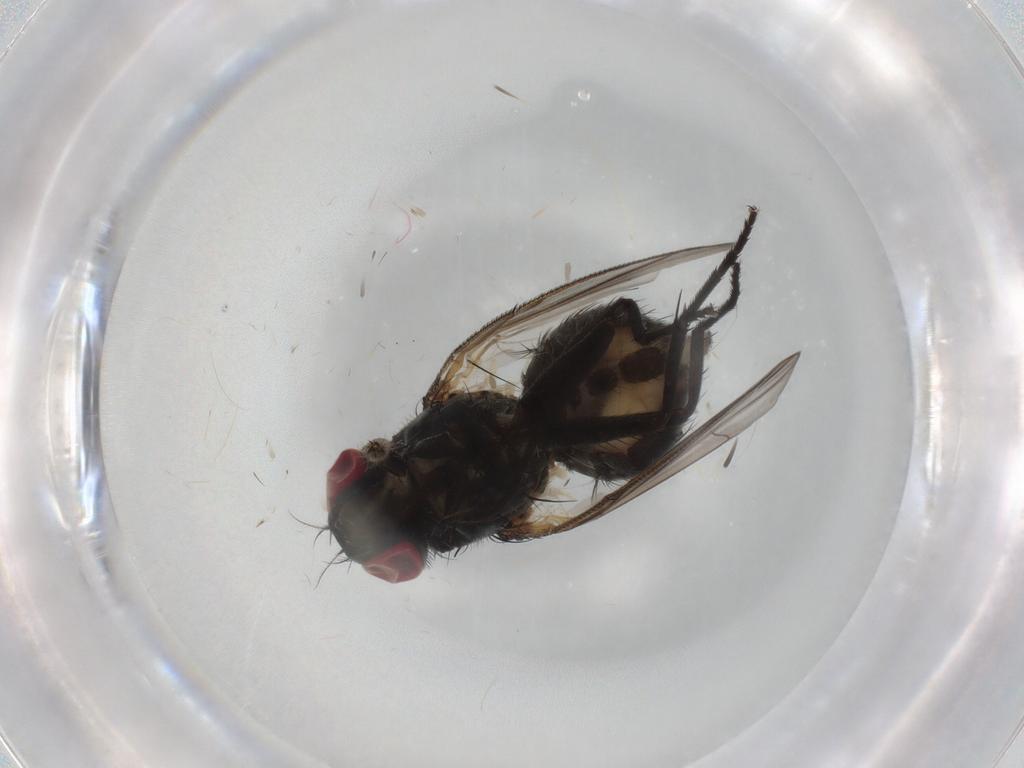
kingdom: Animalia
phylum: Arthropoda
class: Insecta
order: Diptera
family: Muscidae
